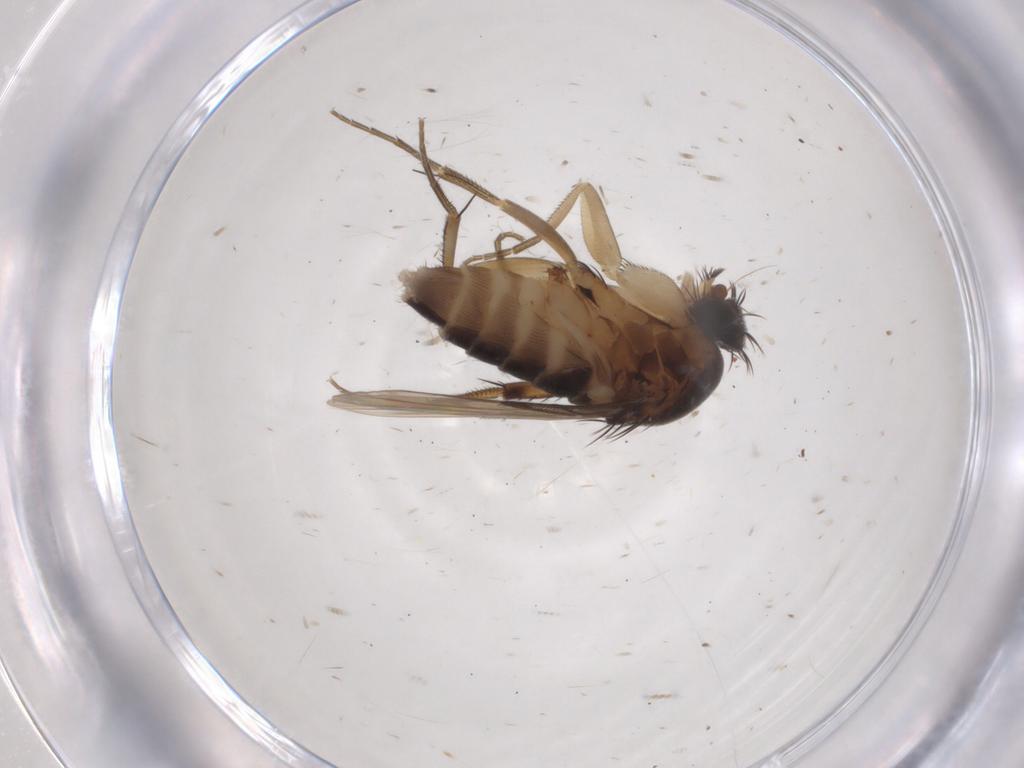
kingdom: Animalia
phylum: Arthropoda
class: Insecta
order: Diptera
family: Phoridae
